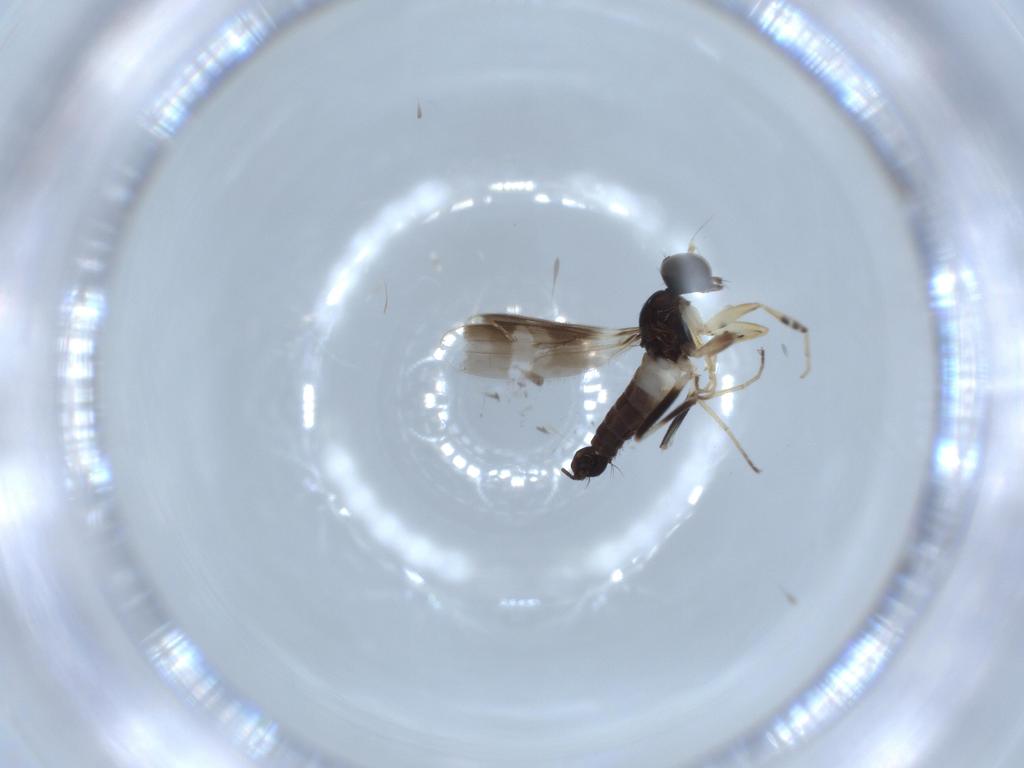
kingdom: Animalia
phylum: Arthropoda
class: Insecta
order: Diptera
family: Hybotidae
